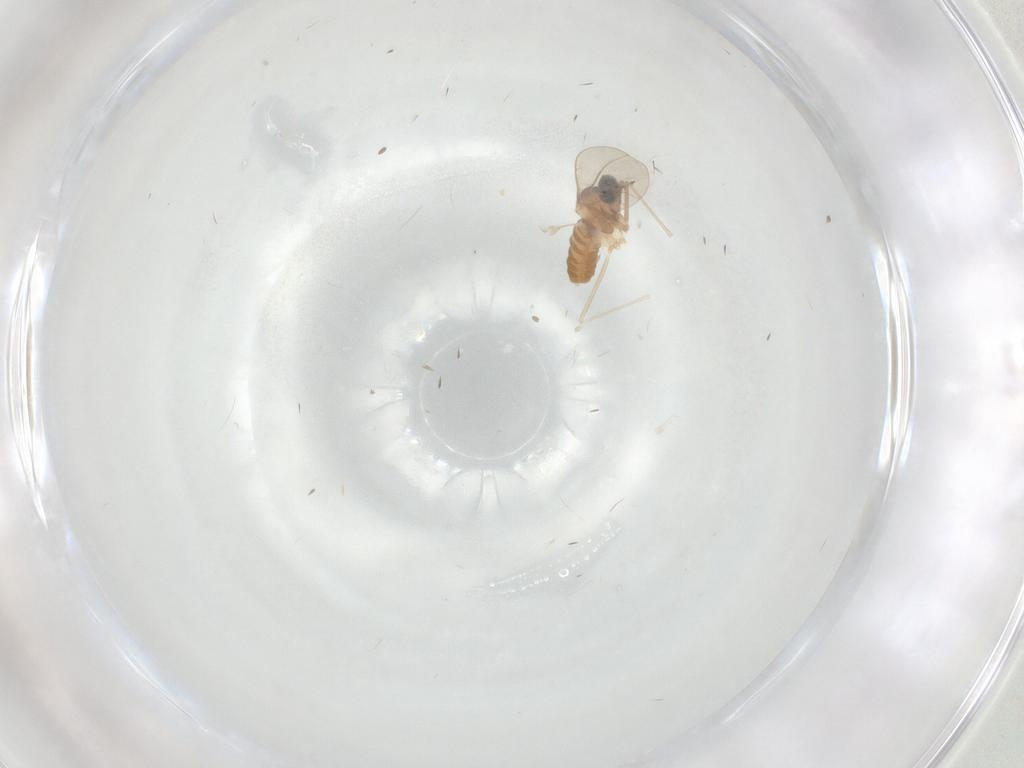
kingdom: Animalia
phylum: Arthropoda
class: Insecta
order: Diptera
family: Cecidomyiidae
